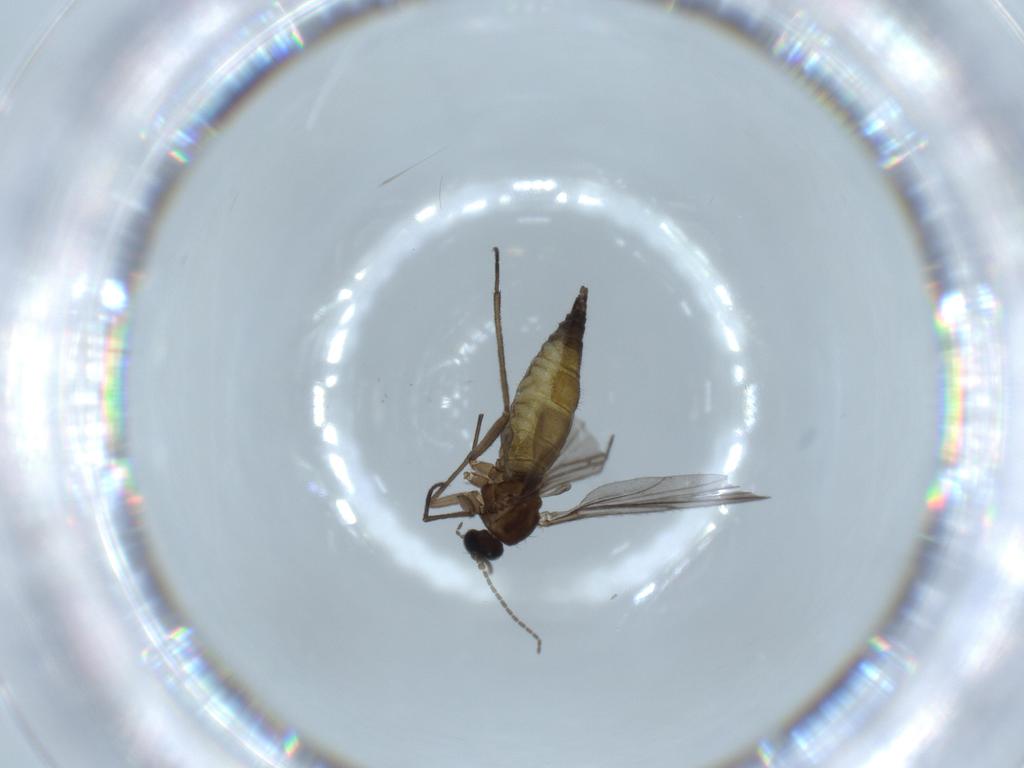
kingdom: Animalia
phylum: Arthropoda
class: Insecta
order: Diptera
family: Sciaridae
